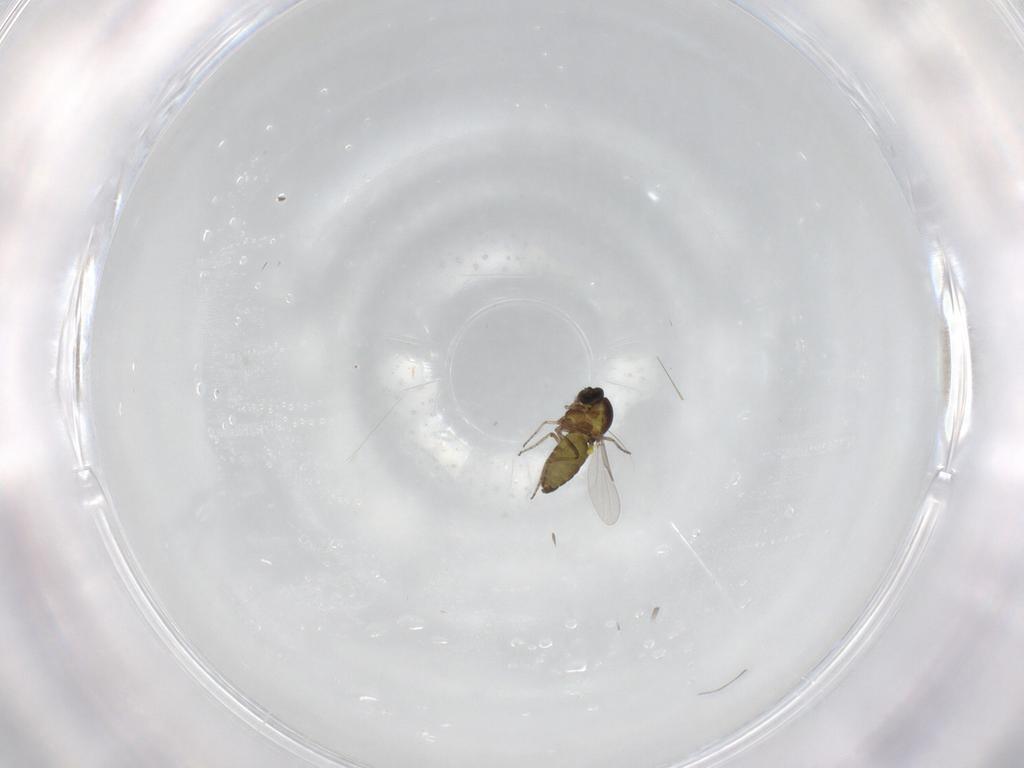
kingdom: Animalia
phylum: Arthropoda
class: Insecta
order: Diptera
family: Ceratopogonidae
